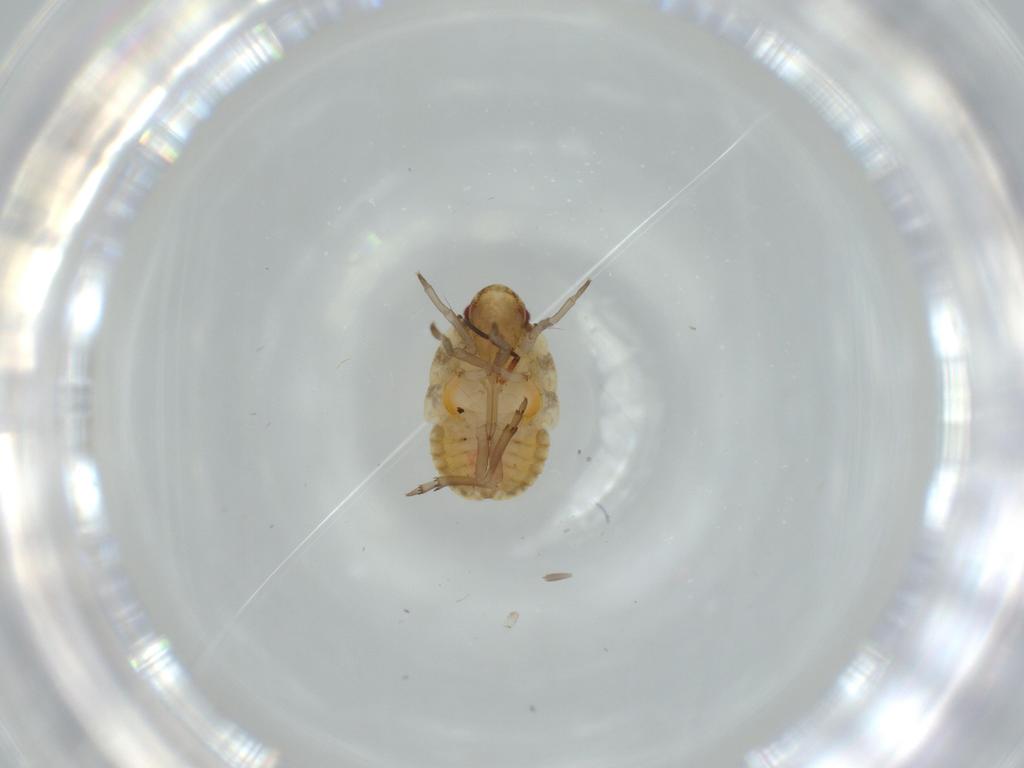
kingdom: Animalia
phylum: Arthropoda
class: Insecta
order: Hemiptera
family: Flatidae
